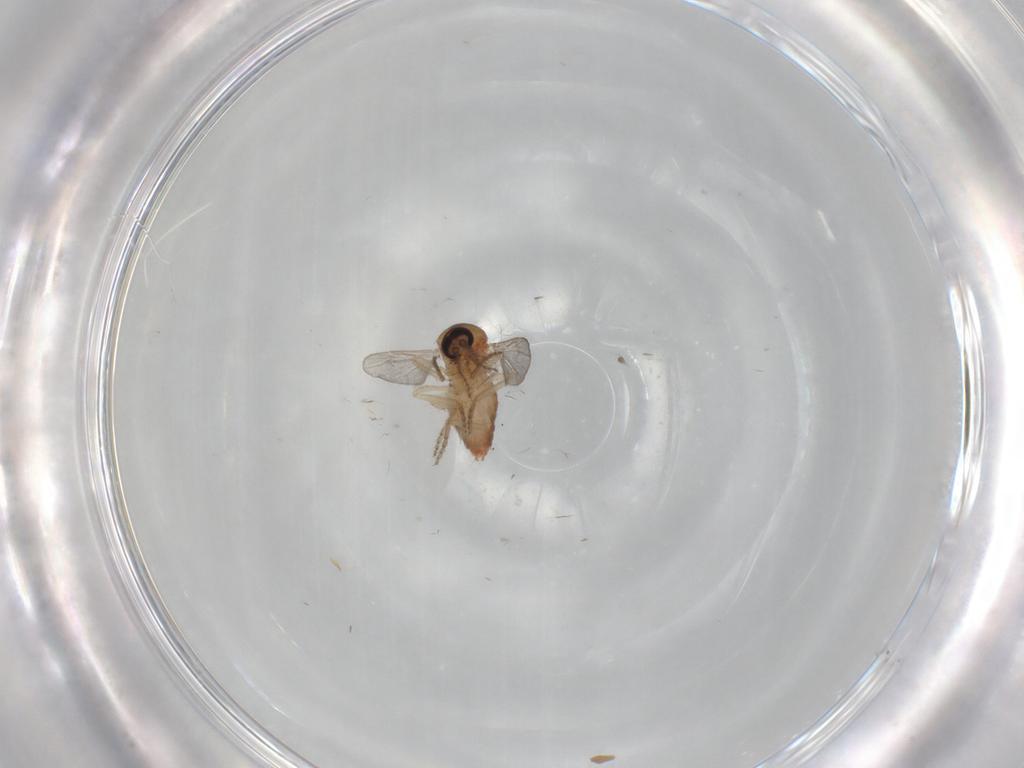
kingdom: Animalia
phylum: Arthropoda
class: Insecta
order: Diptera
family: Ceratopogonidae
